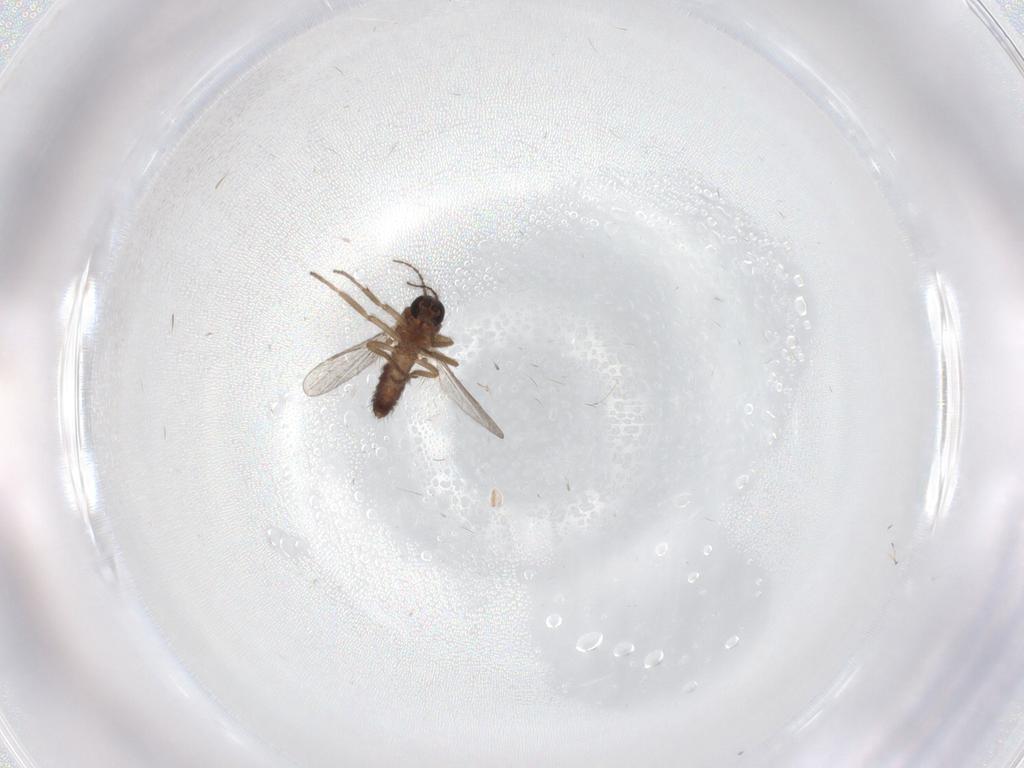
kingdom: Animalia
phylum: Arthropoda
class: Insecta
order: Diptera
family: Ceratopogonidae
